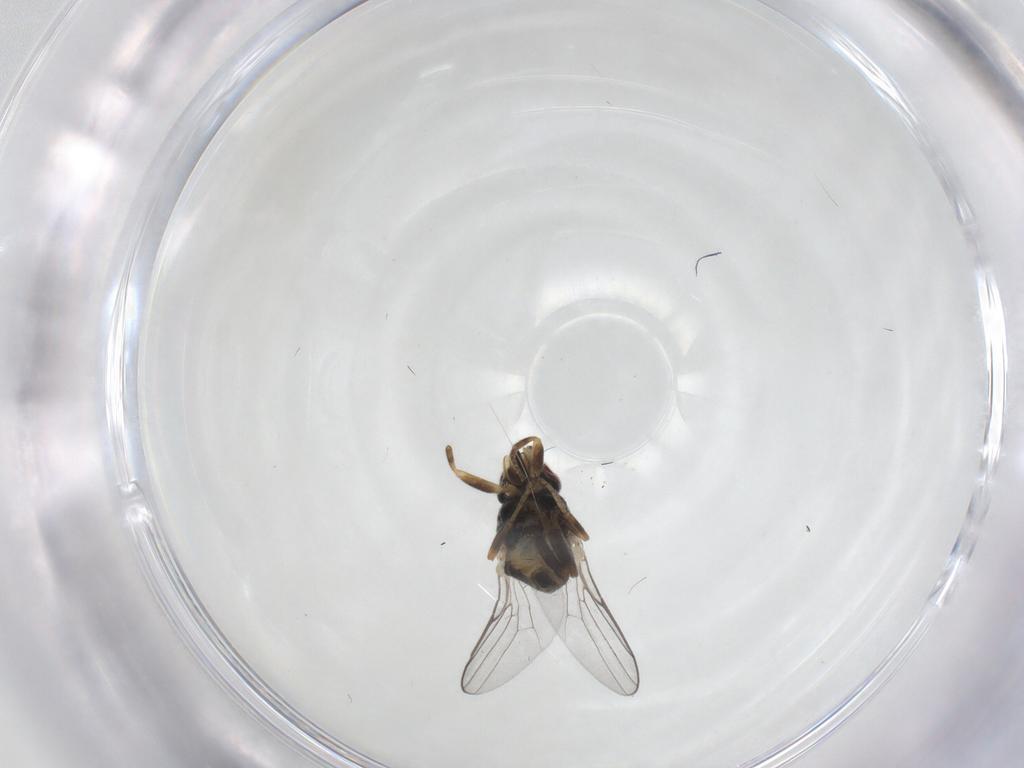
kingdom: Animalia
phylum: Arthropoda
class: Insecta
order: Diptera
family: Chloropidae
